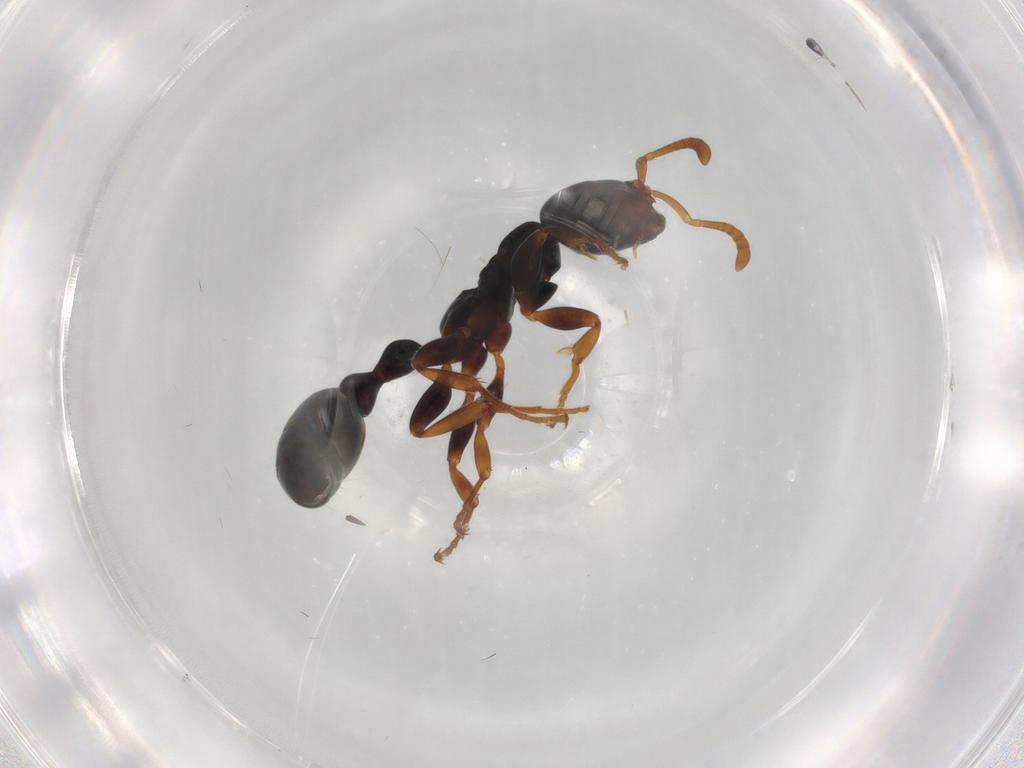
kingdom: Animalia
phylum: Arthropoda
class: Insecta
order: Hymenoptera
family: Formicidae
